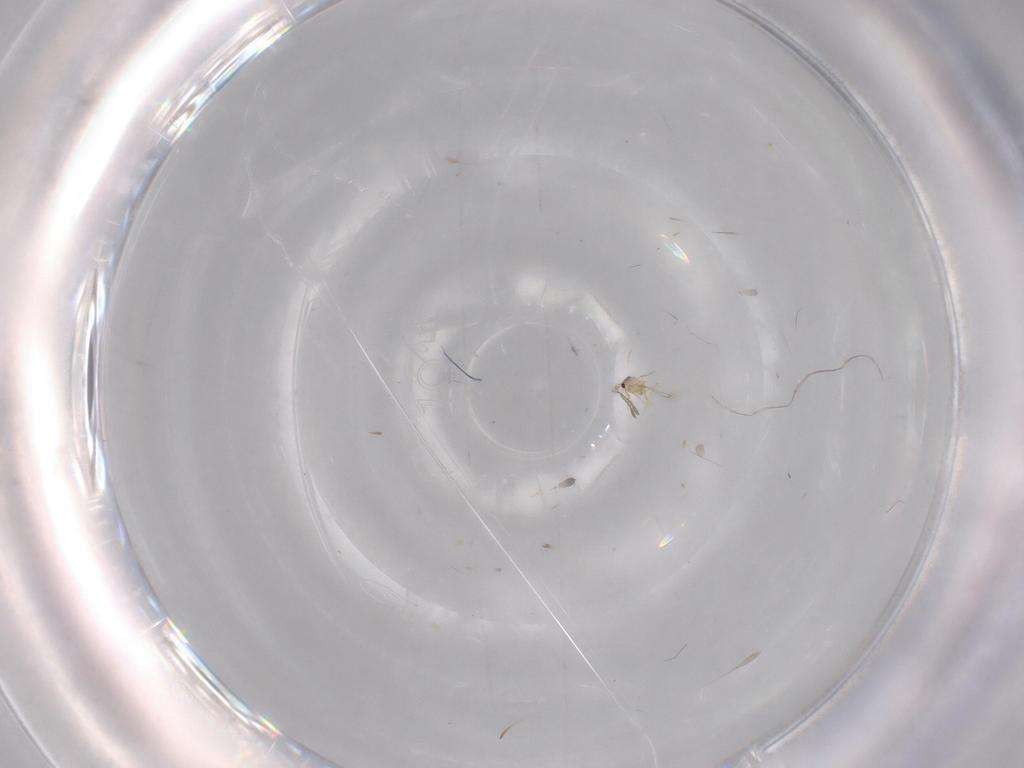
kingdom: Animalia
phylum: Arthropoda
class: Insecta
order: Hymenoptera
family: Mymaridae
